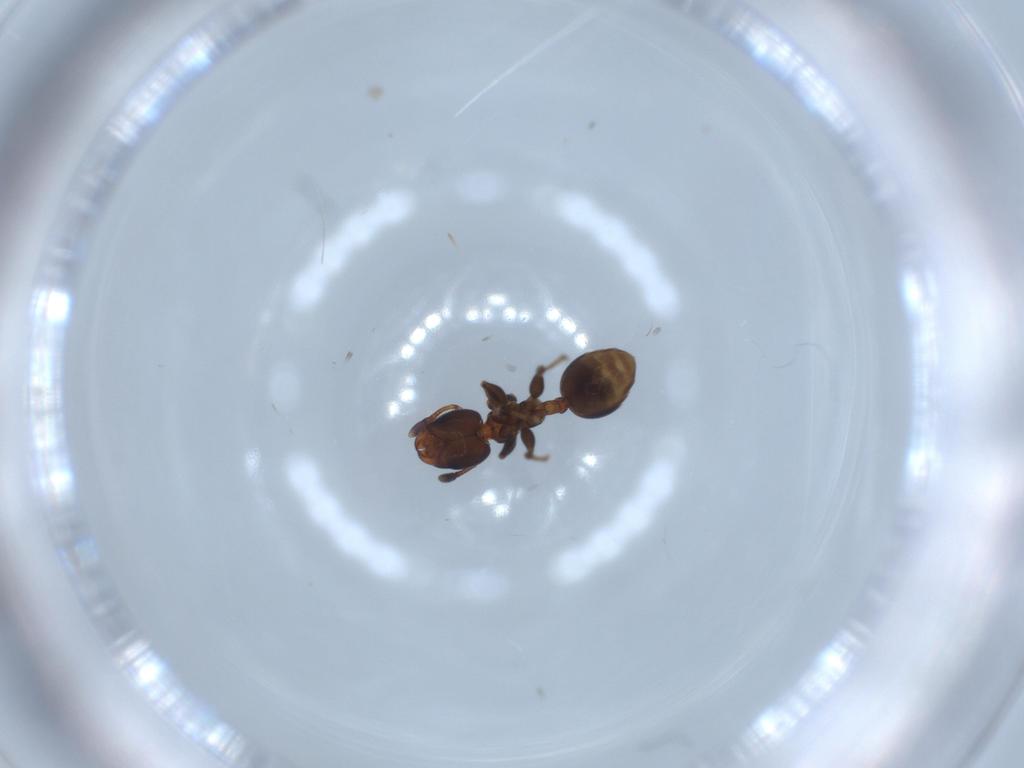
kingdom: Animalia
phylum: Arthropoda
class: Insecta
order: Hymenoptera
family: Formicidae
